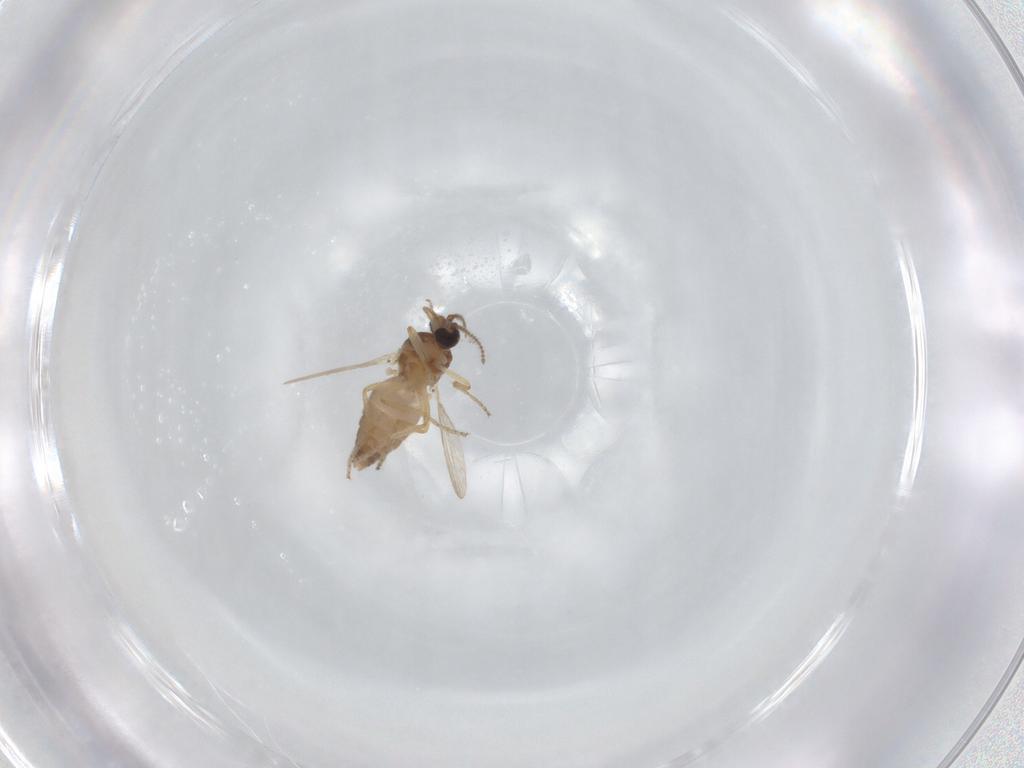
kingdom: Animalia
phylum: Arthropoda
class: Insecta
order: Diptera
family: Ceratopogonidae
